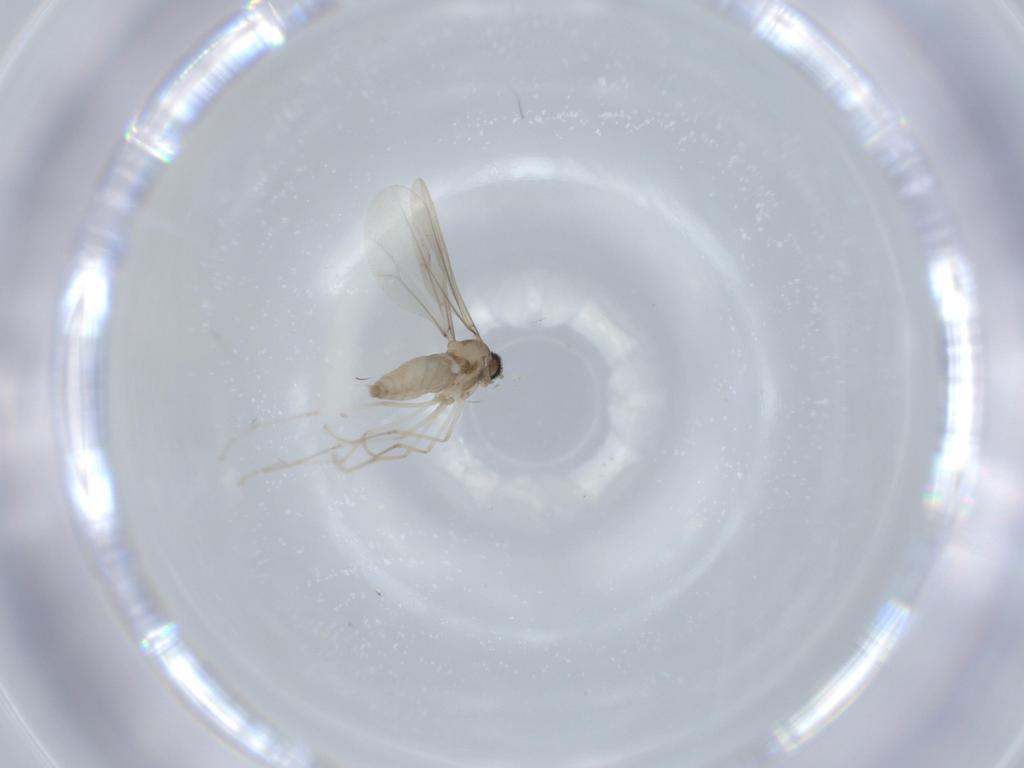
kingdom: Animalia
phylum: Arthropoda
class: Insecta
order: Diptera
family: Cecidomyiidae
